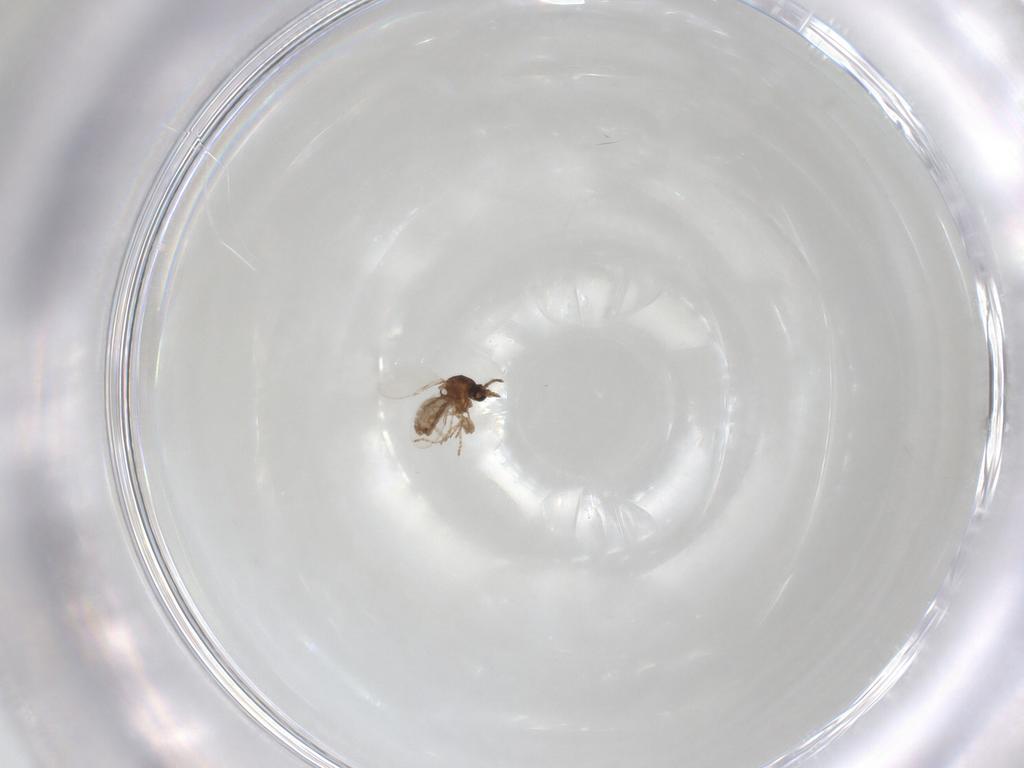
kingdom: Animalia
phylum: Arthropoda
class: Insecta
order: Diptera
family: Ceratopogonidae
